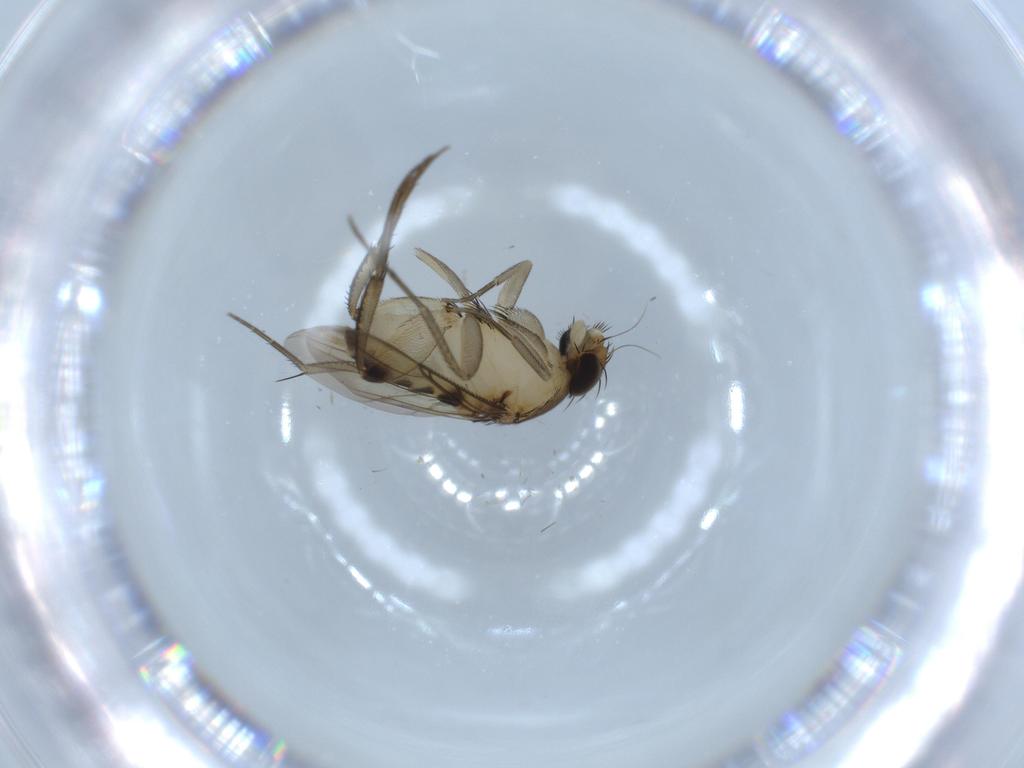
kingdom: Animalia
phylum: Arthropoda
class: Insecta
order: Diptera
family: Phoridae
